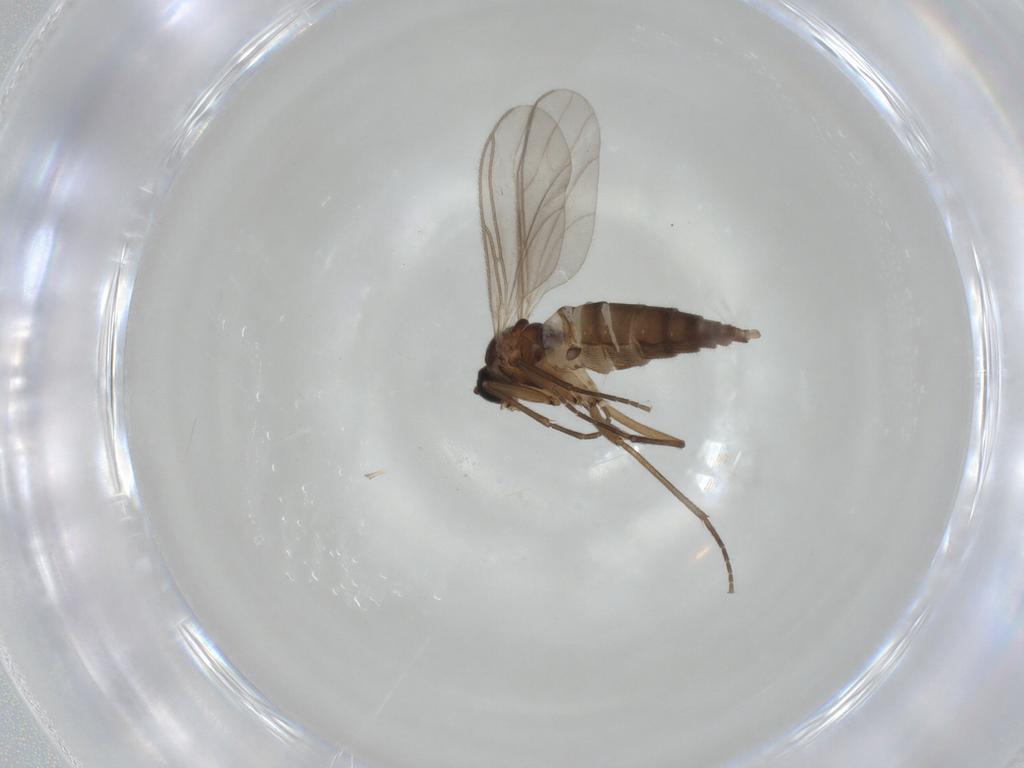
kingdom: Animalia
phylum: Arthropoda
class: Insecta
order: Diptera
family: Sciaridae
